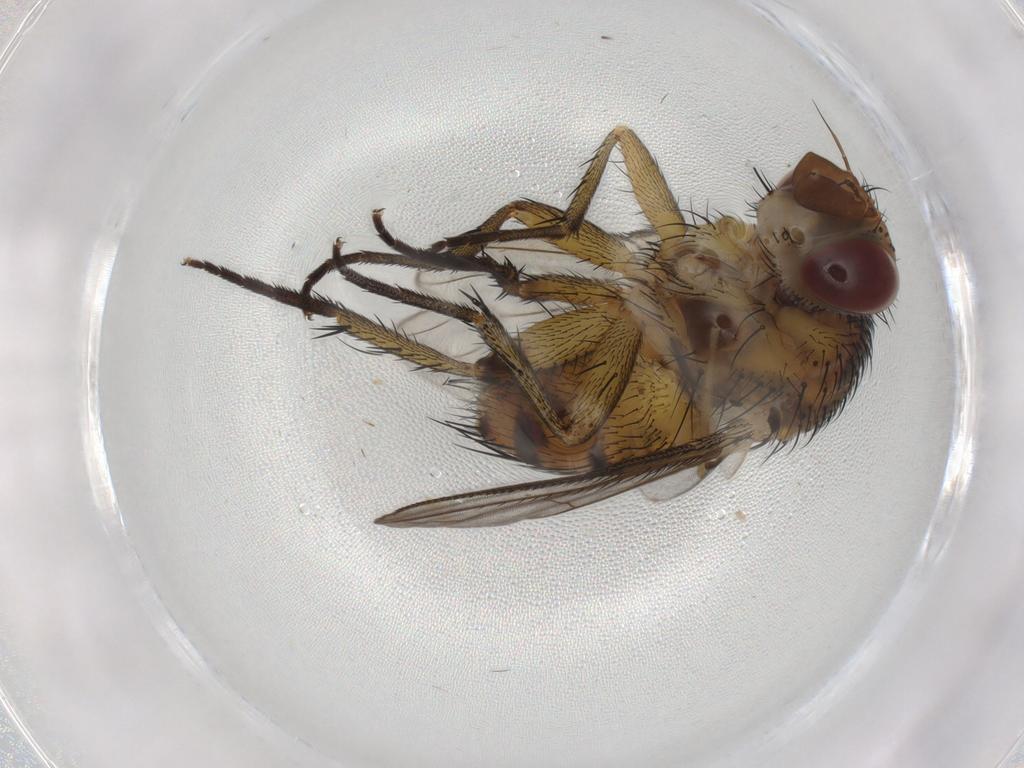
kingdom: Animalia
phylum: Arthropoda
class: Insecta
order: Diptera
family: Tachinidae
